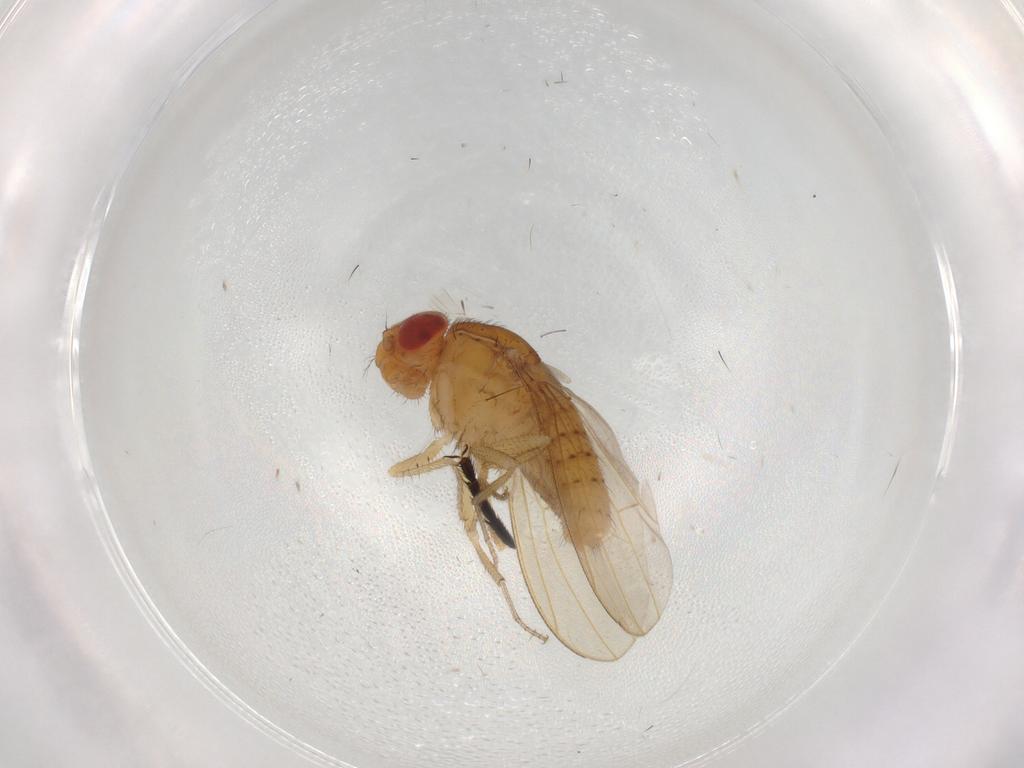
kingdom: Animalia
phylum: Arthropoda
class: Insecta
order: Diptera
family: Drosophilidae
